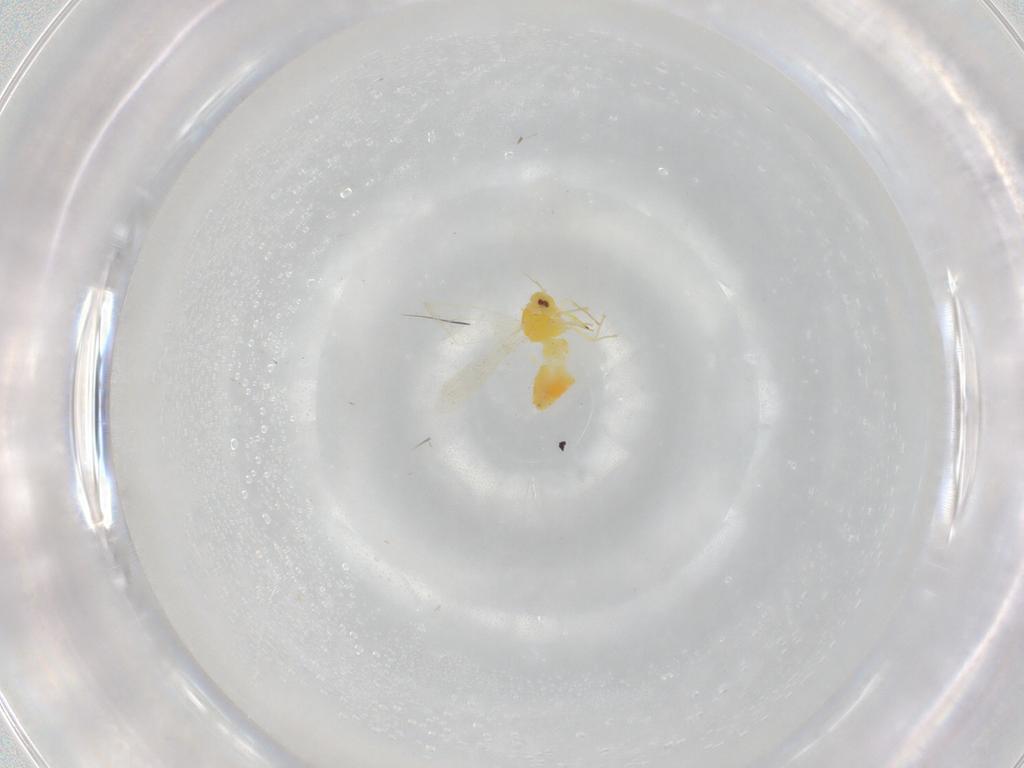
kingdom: Animalia
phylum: Arthropoda
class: Insecta
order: Hemiptera
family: Aleyrodidae
